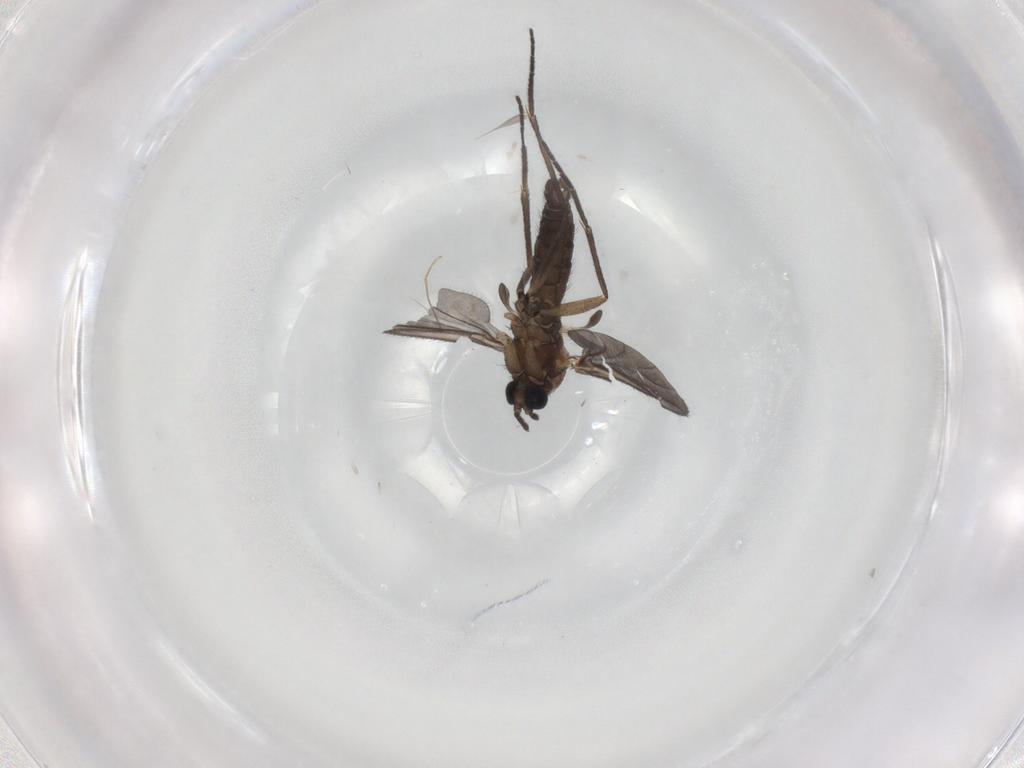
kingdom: Animalia
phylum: Arthropoda
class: Insecta
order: Diptera
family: Sciaridae
